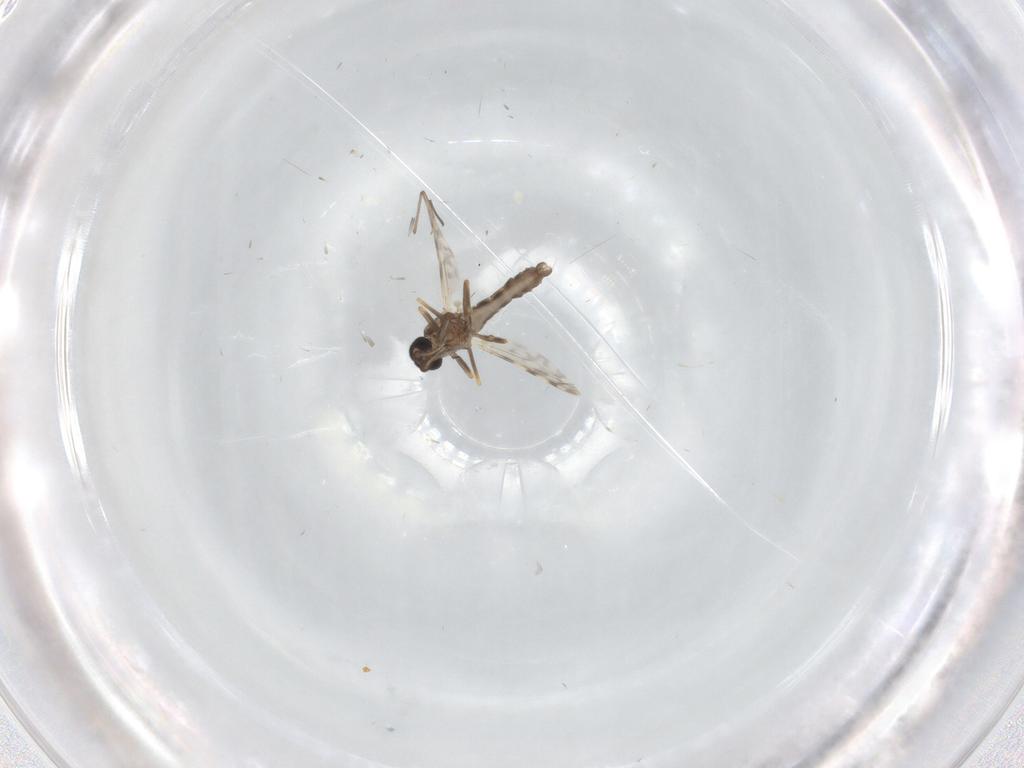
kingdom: Animalia
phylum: Arthropoda
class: Insecta
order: Diptera
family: Ceratopogonidae
